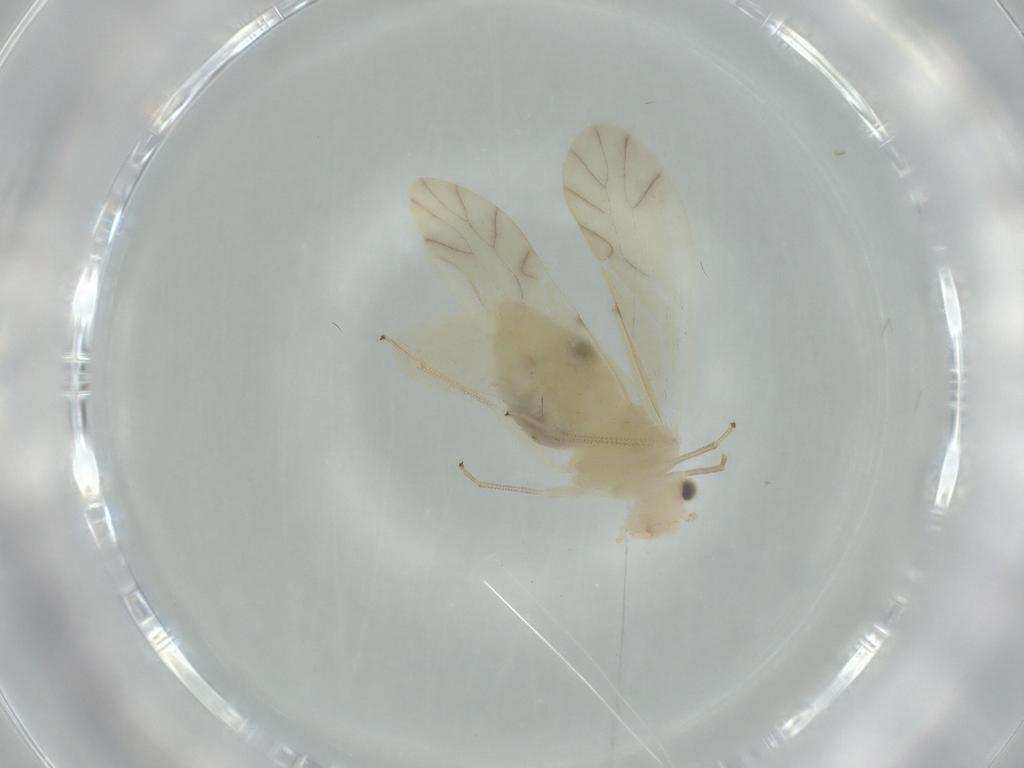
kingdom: Animalia
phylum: Arthropoda
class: Insecta
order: Psocodea
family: Caeciliusidae
